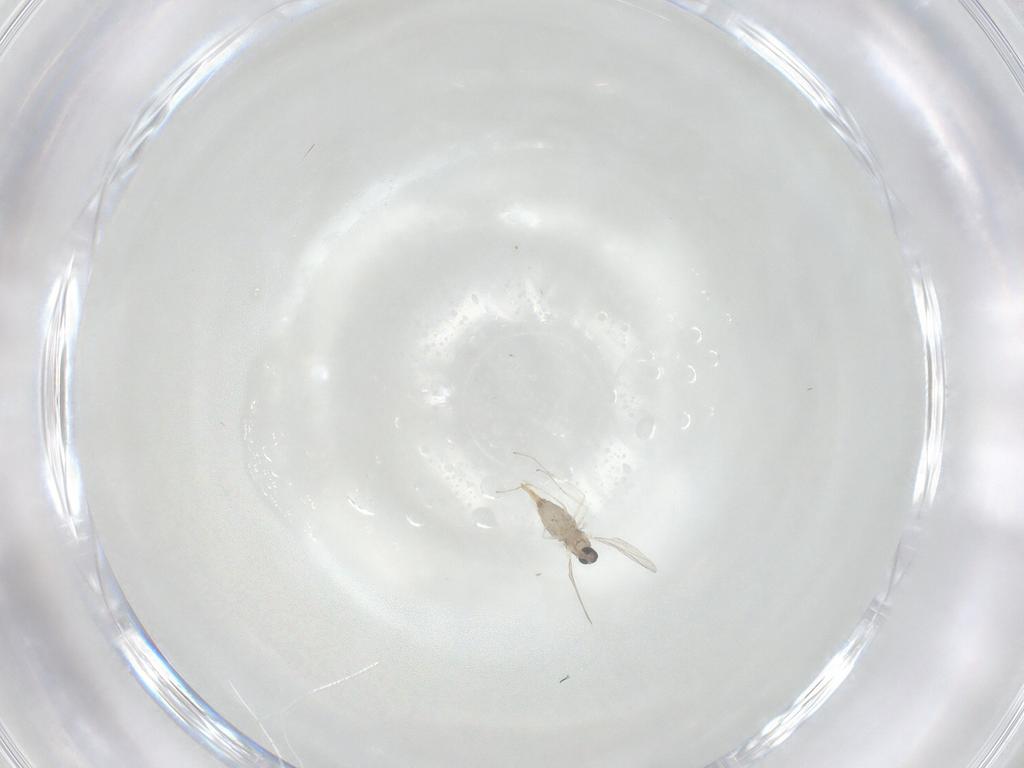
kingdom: Animalia
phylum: Arthropoda
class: Insecta
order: Diptera
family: Cecidomyiidae
